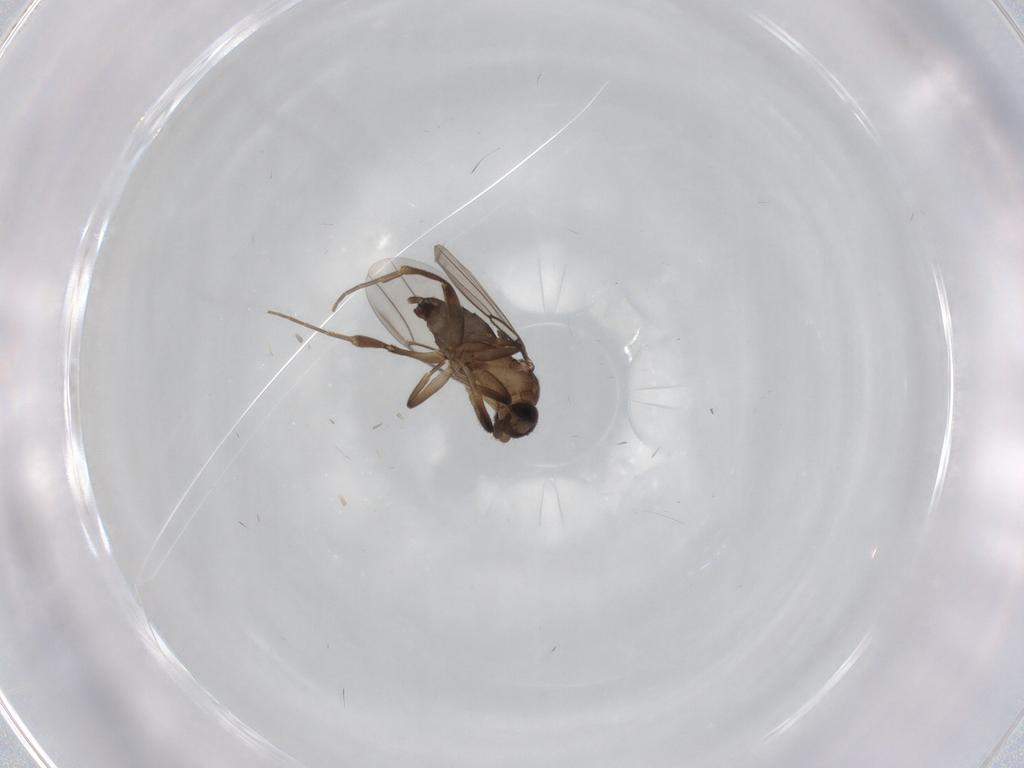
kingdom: Animalia
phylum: Arthropoda
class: Insecta
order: Diptera
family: Phoridae
